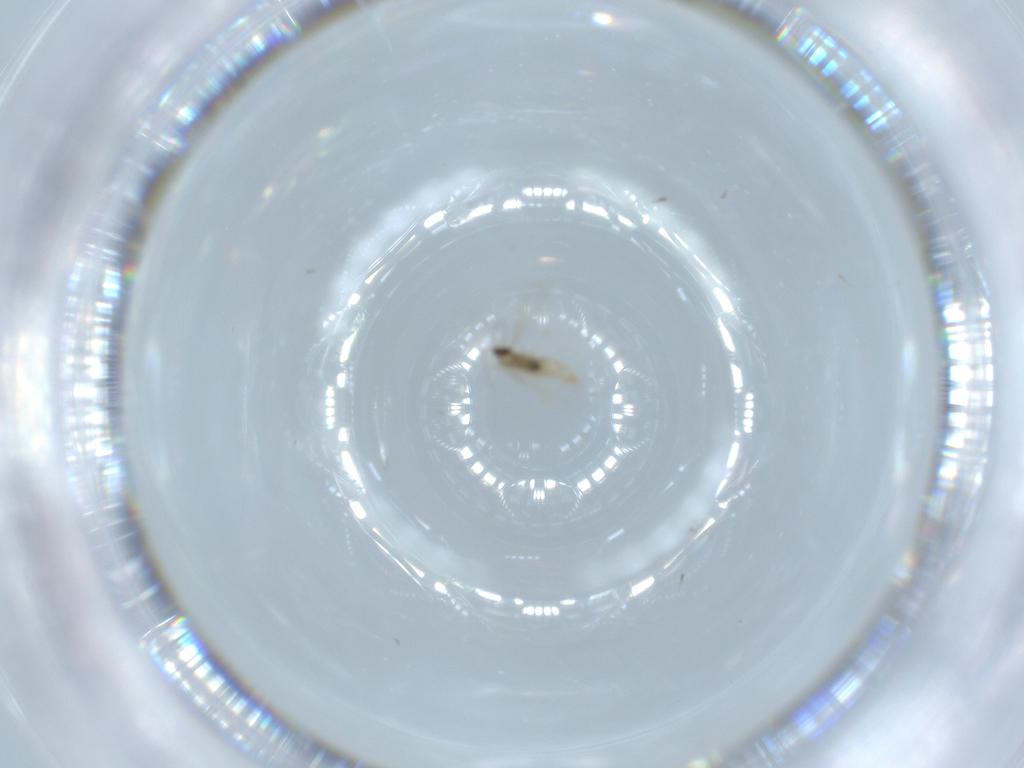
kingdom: Animalia
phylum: Arthropoda
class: Insecta
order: Diptera
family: Cecidomyiidae
